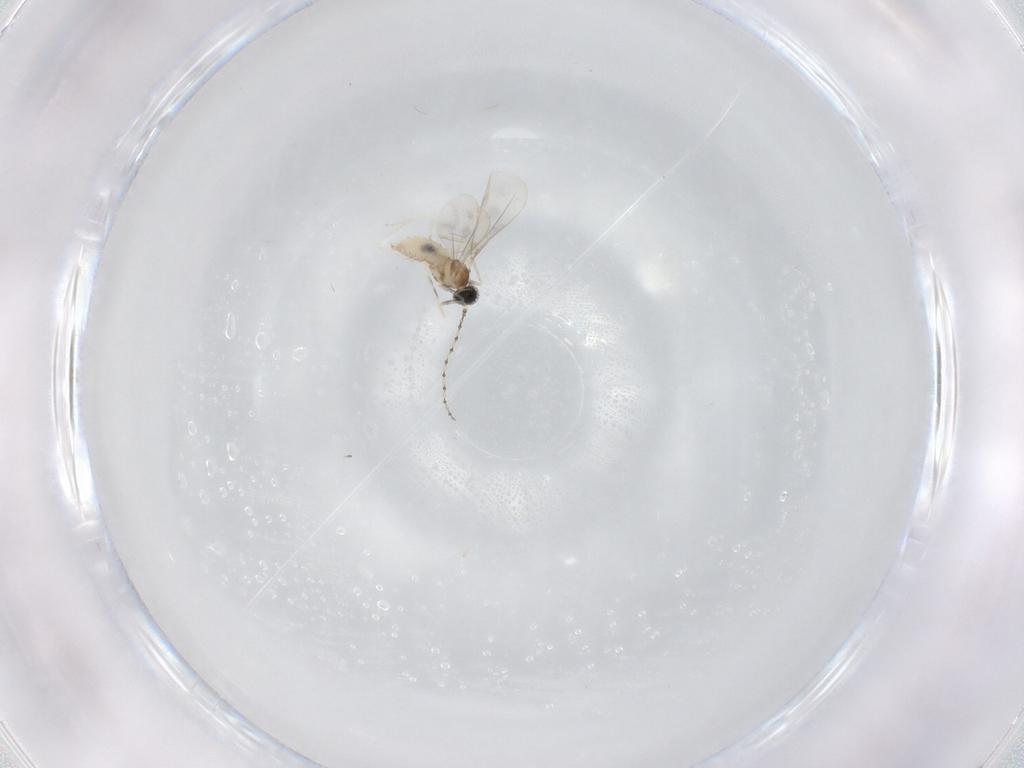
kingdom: Animalia
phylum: Arthropoda
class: Insecta
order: Diptera
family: Cecidomyiidae
